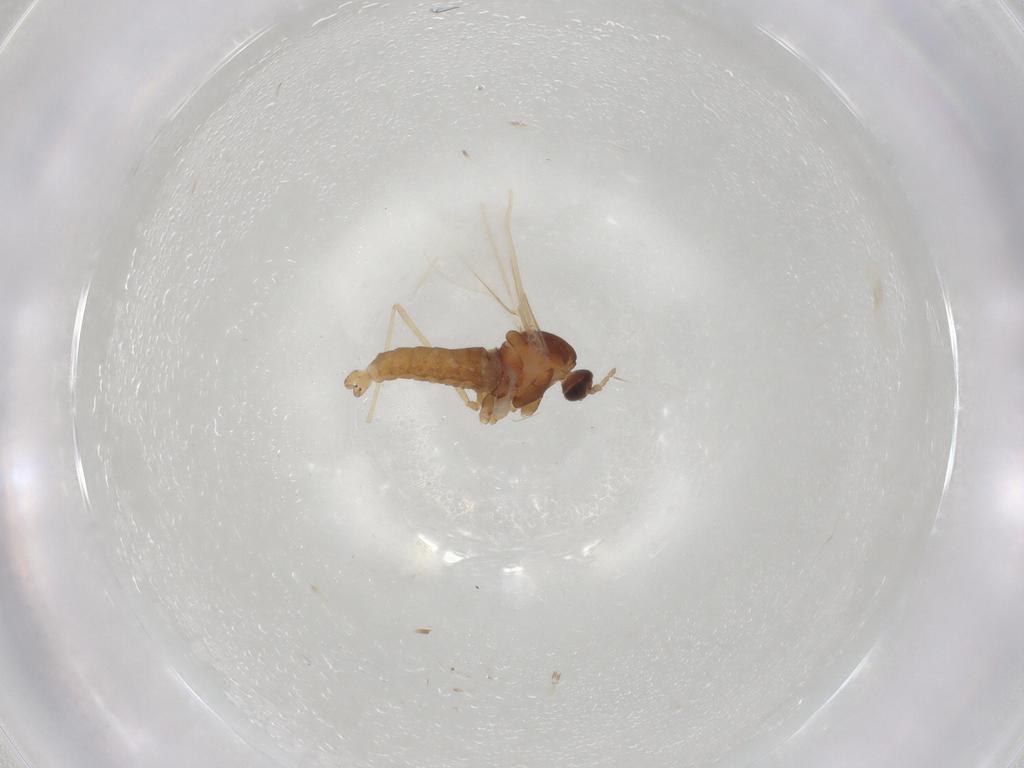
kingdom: Animalia
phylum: Arthropoda
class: Insecta
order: Diptera
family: Cecidomyiidae
